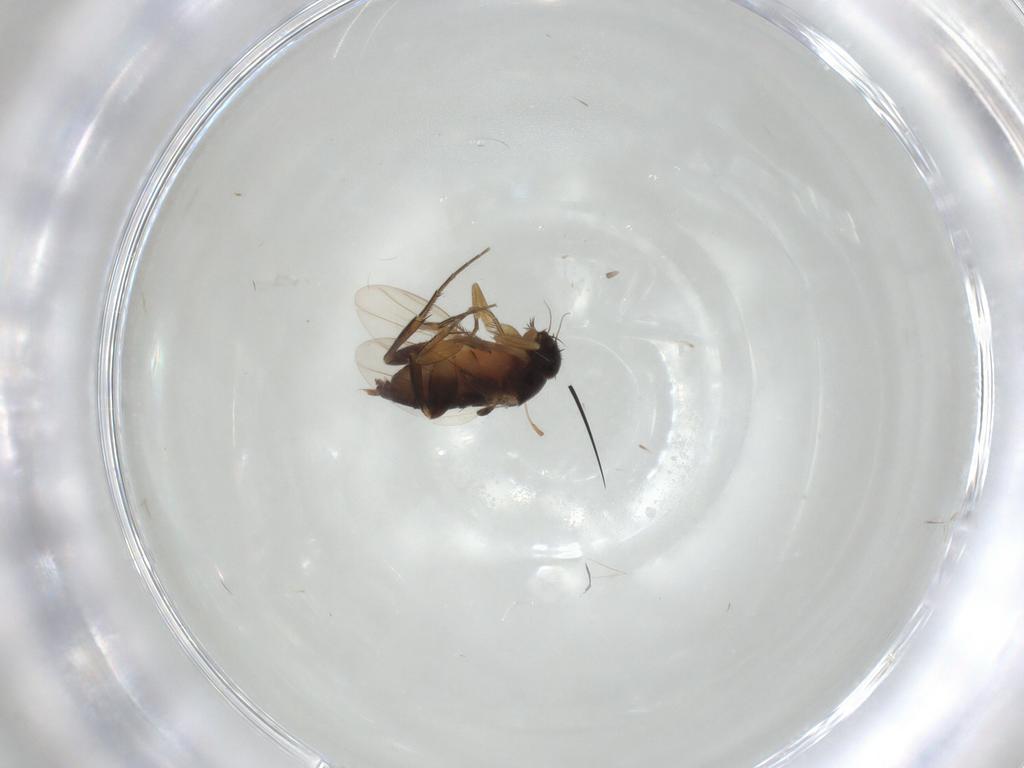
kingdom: Animalia
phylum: Arthropoda
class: Insecta
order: Diptera
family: Phoridae
